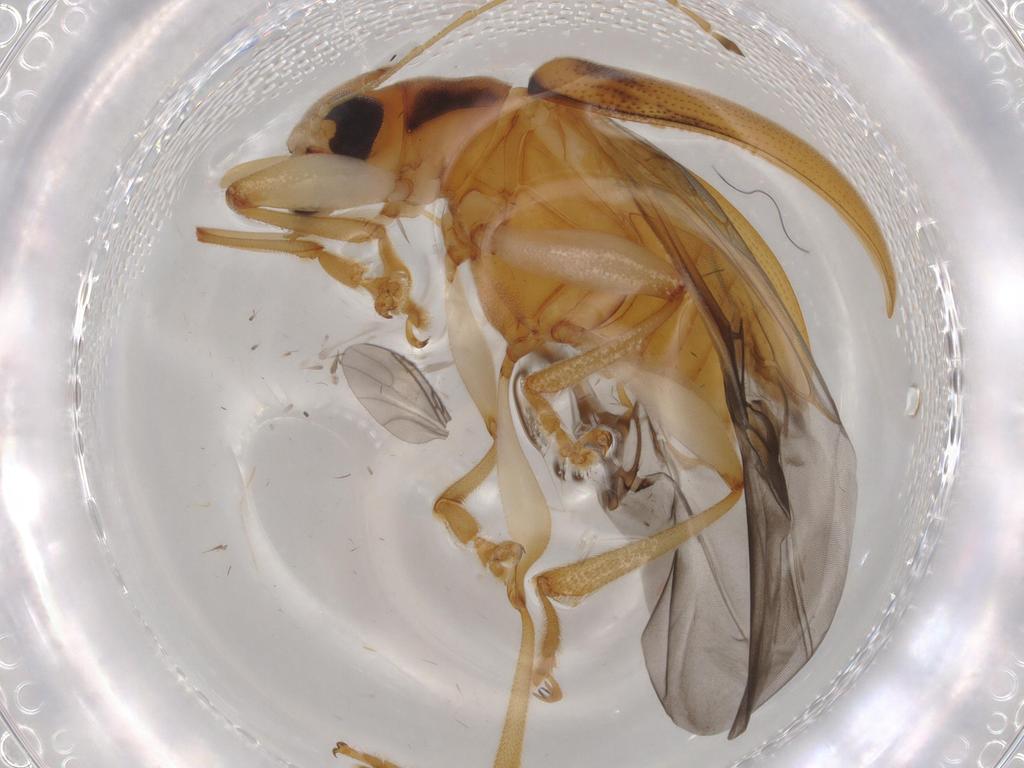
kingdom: Animalia
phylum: Arthropoda
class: Insecta
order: Coleoptera
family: Chrysomelidae
